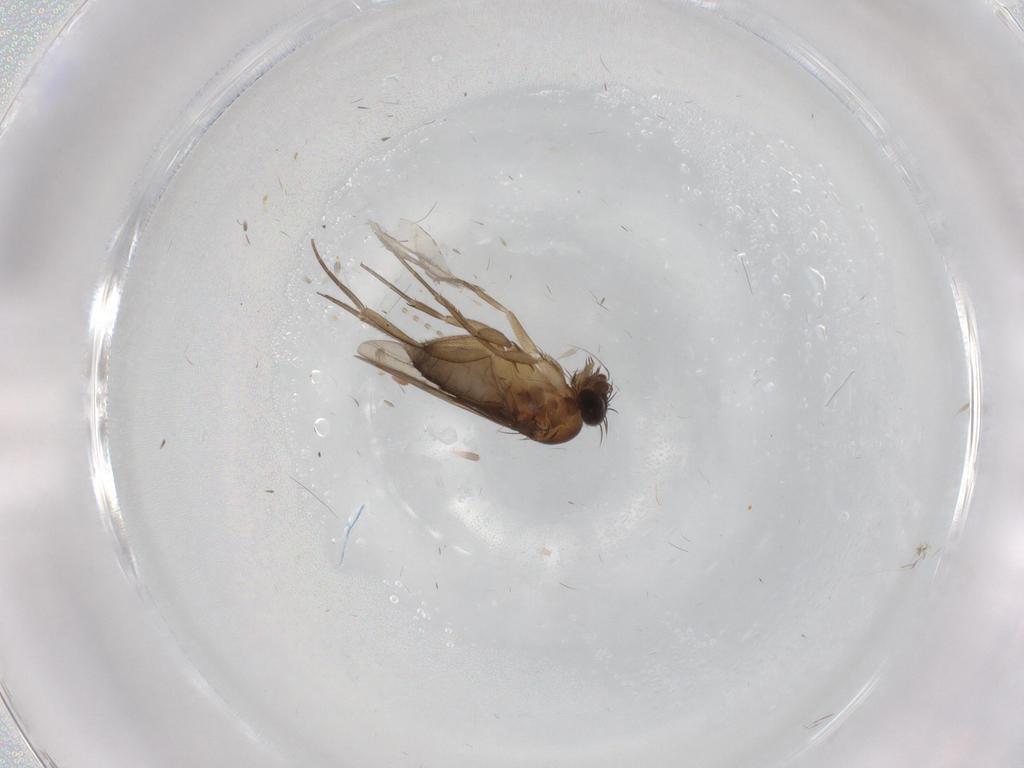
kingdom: Animalia
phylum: Arthropoda
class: Insecta
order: Diptera
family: Phoridae
